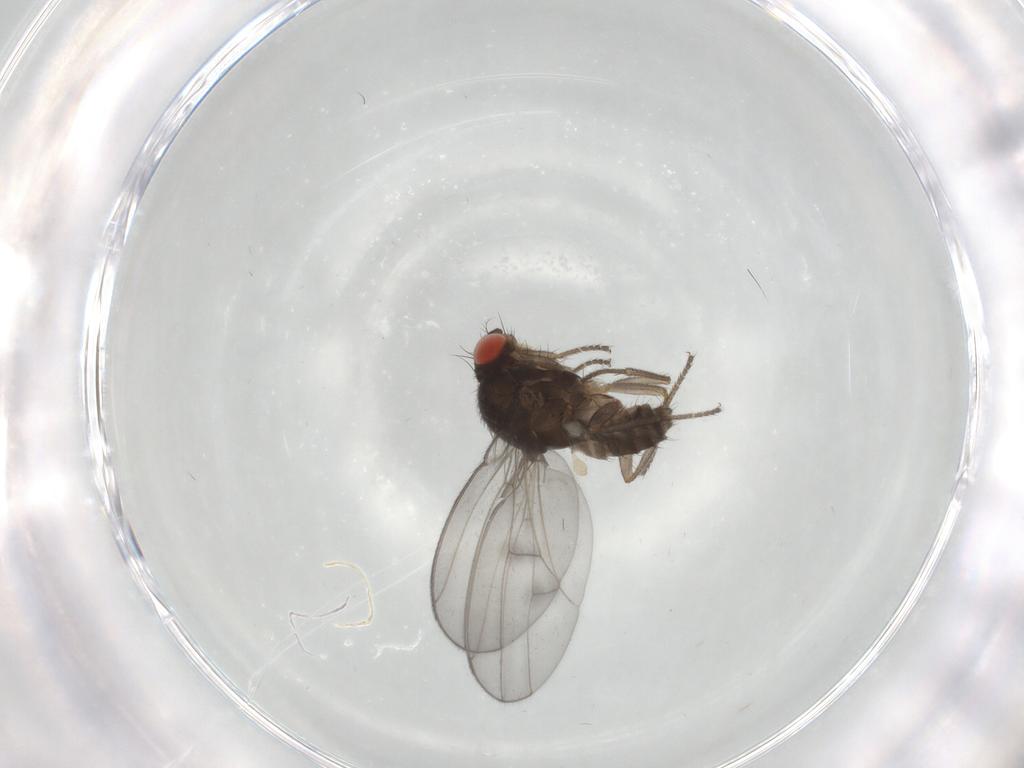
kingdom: Animalia
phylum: Arthropoda
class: Insecta
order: Diptera
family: Drosophilidae
